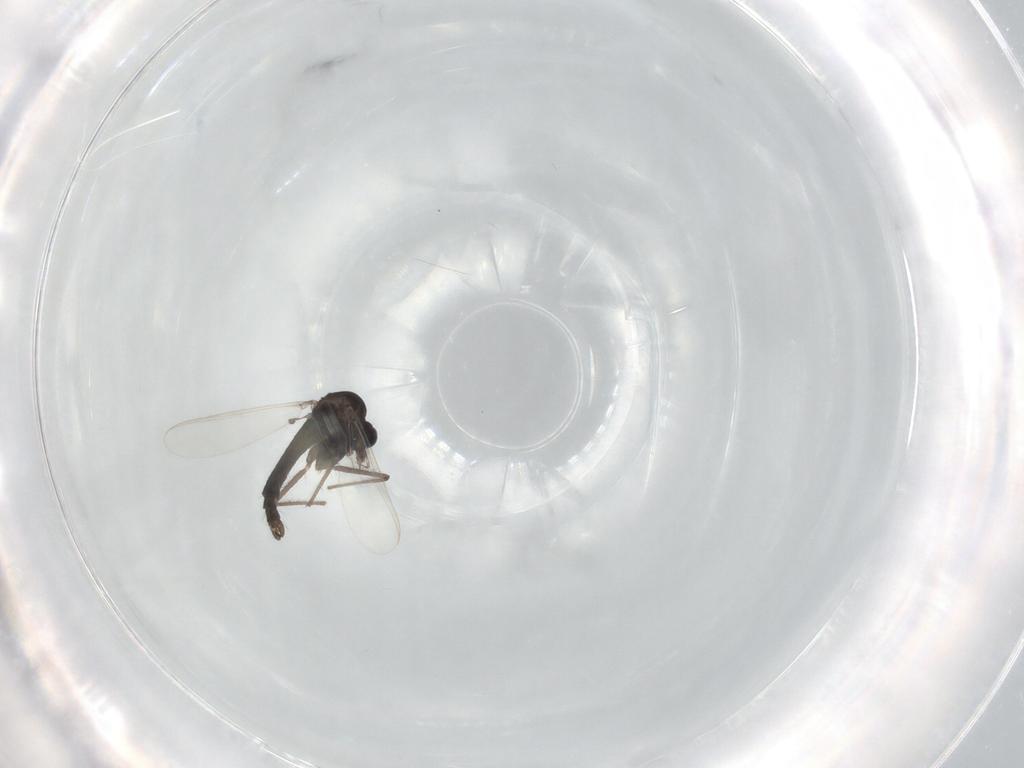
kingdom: Animalia
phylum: Arthropoda
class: Insecta
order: Diptera
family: Chironomidae
